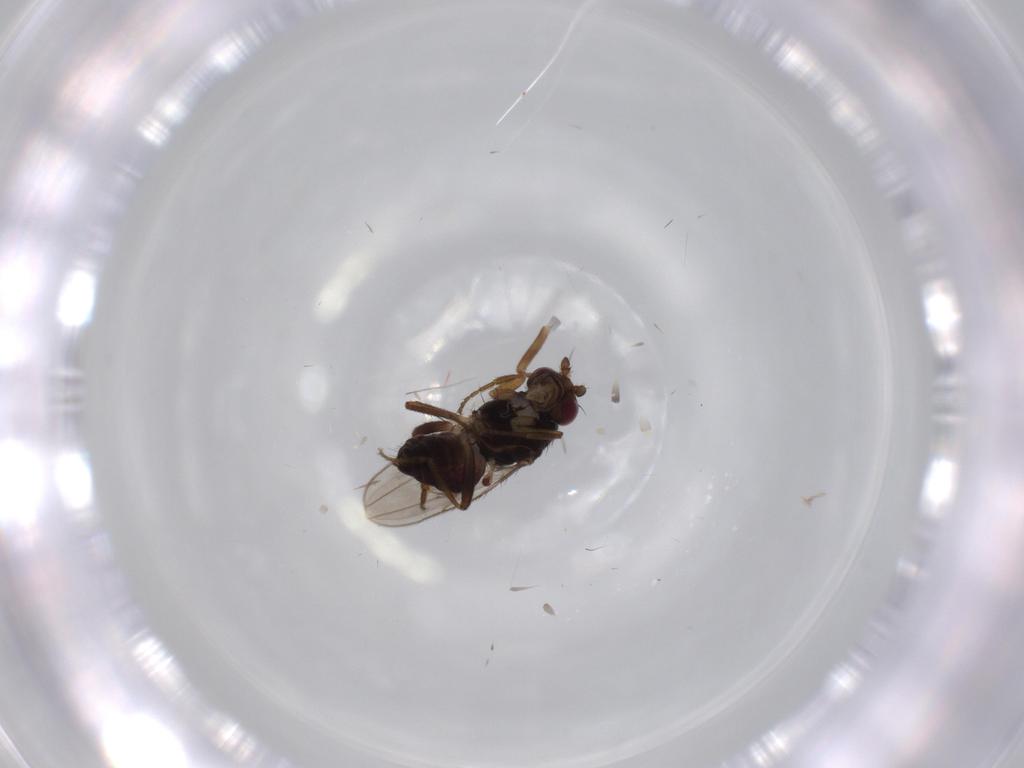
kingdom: Animalia
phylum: Arthropoda
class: Insecta
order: Diptera
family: Sphaeroceridae
